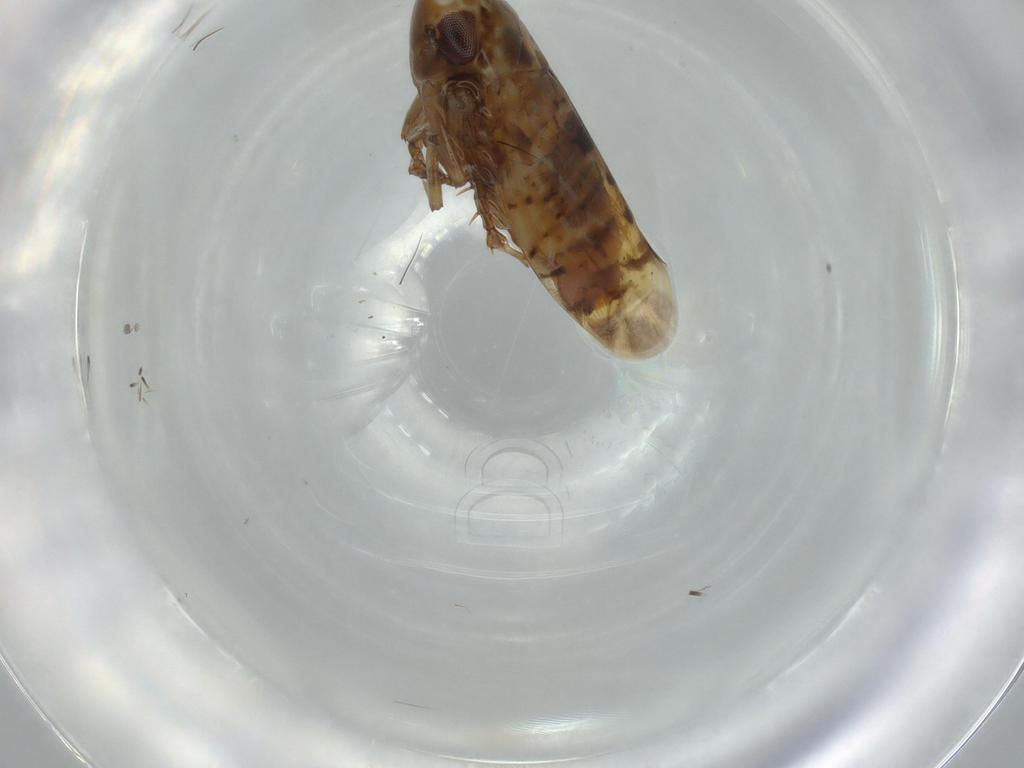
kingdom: Animalia
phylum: Arthropoda
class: Insecta
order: Hemiptera
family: Cicadellidae
